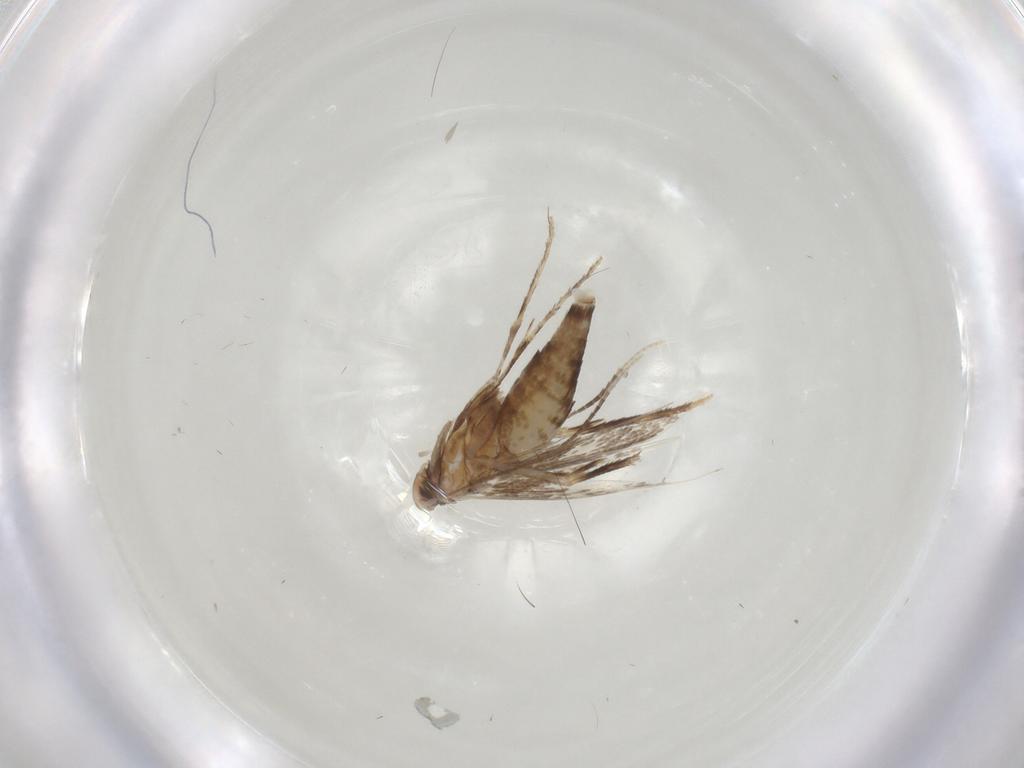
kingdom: Animalia
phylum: Arthropoda
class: Insecta
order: Lepidoptera
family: Gracillariidae
